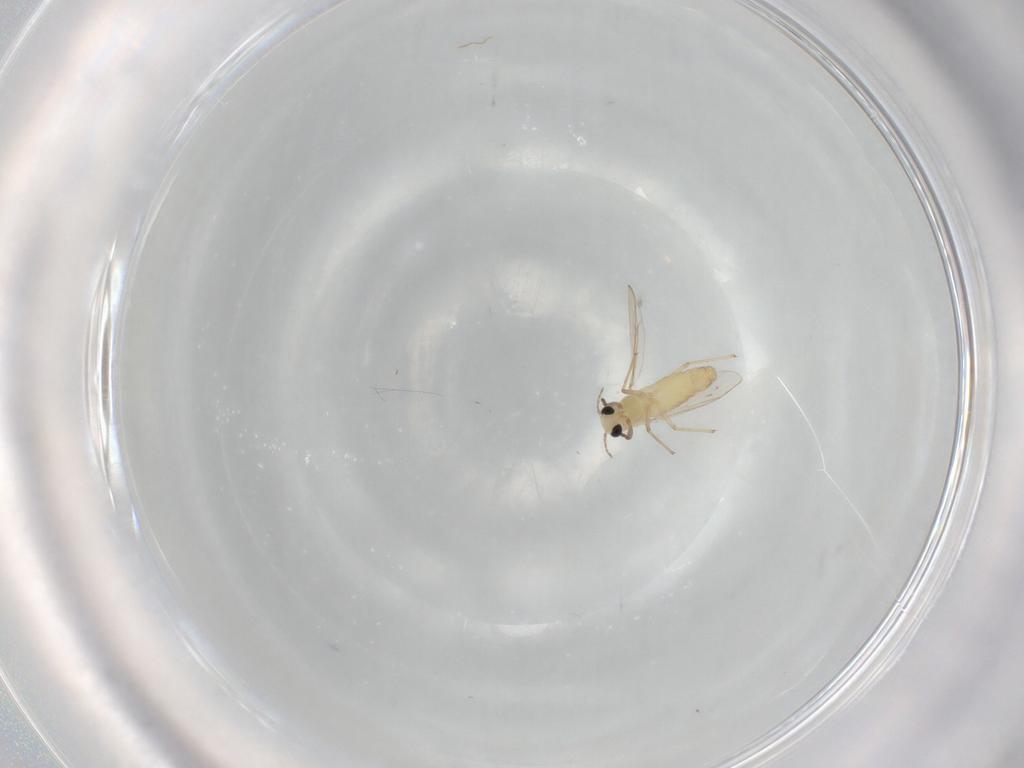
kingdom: Animalia
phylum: Arthropoda
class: Insecta
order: Diptera
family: Chironomidae
